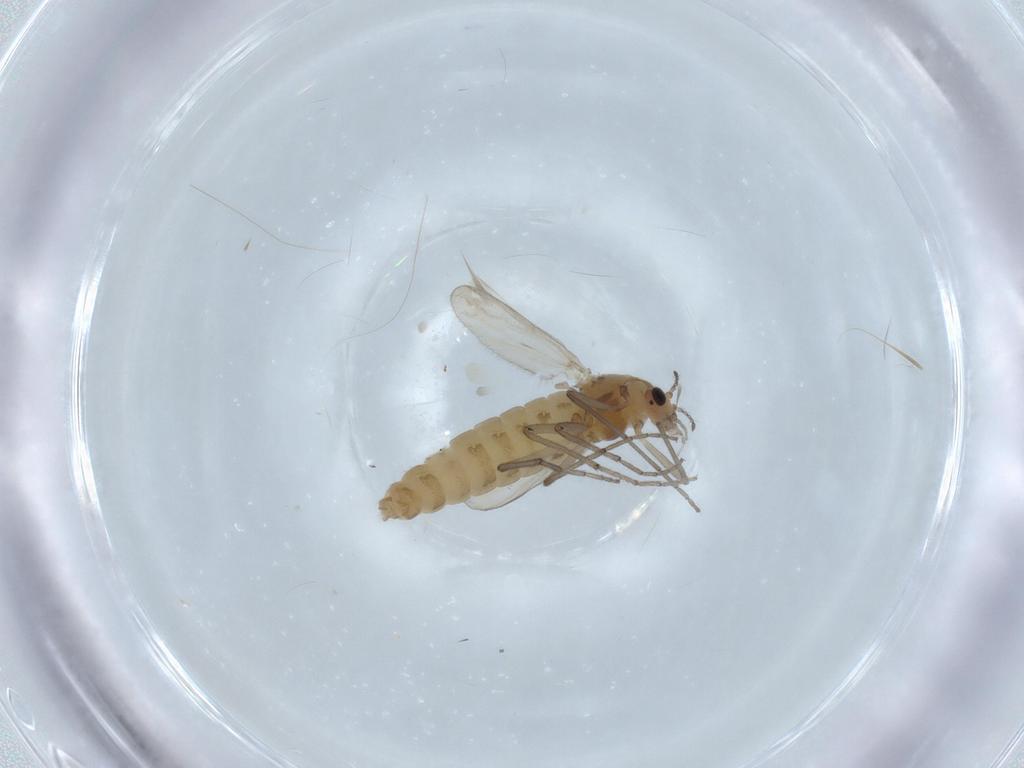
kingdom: Animalia
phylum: Arthropoda
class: Insecta
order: Diptera
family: Chironomidae
